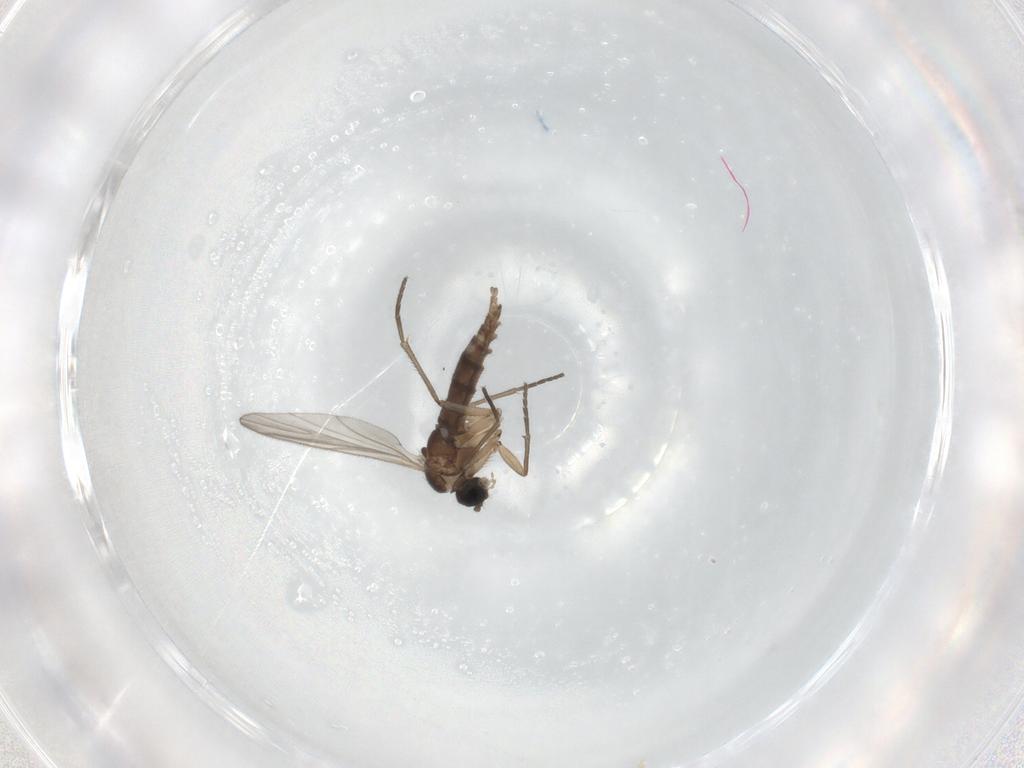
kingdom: Animalia
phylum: Arthropoda
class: Insecta
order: Diptera
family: Sciaridae
